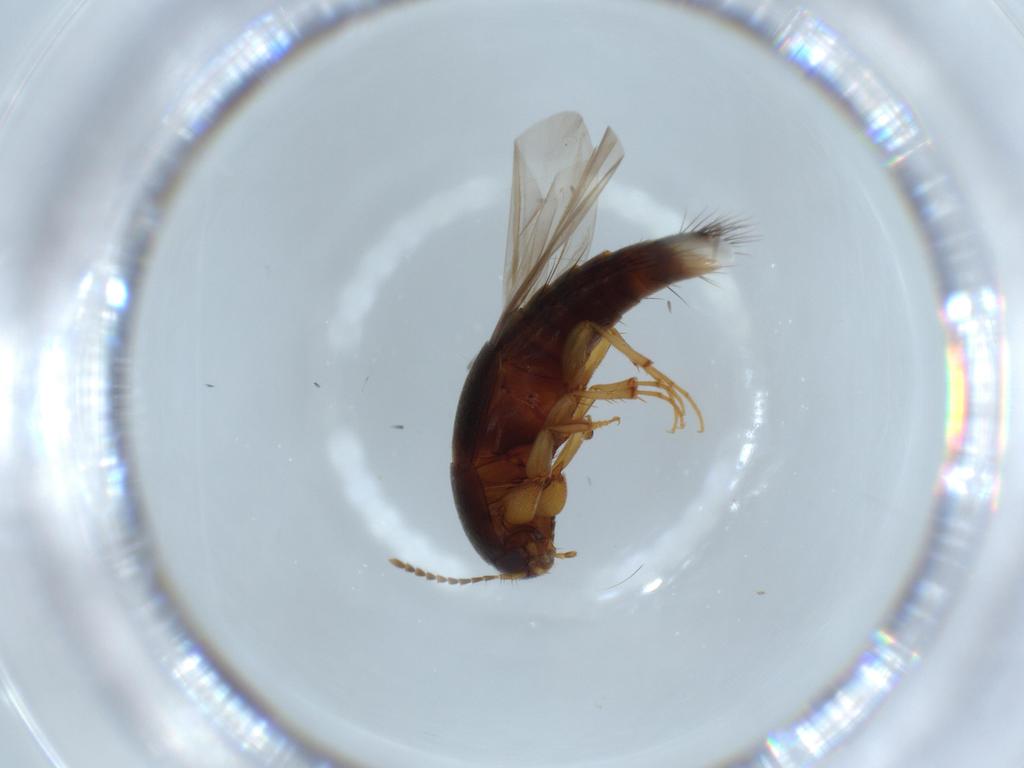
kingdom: Animalia
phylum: Arthropoda
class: Insecta
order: Coleoptera
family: Staphylinidae
